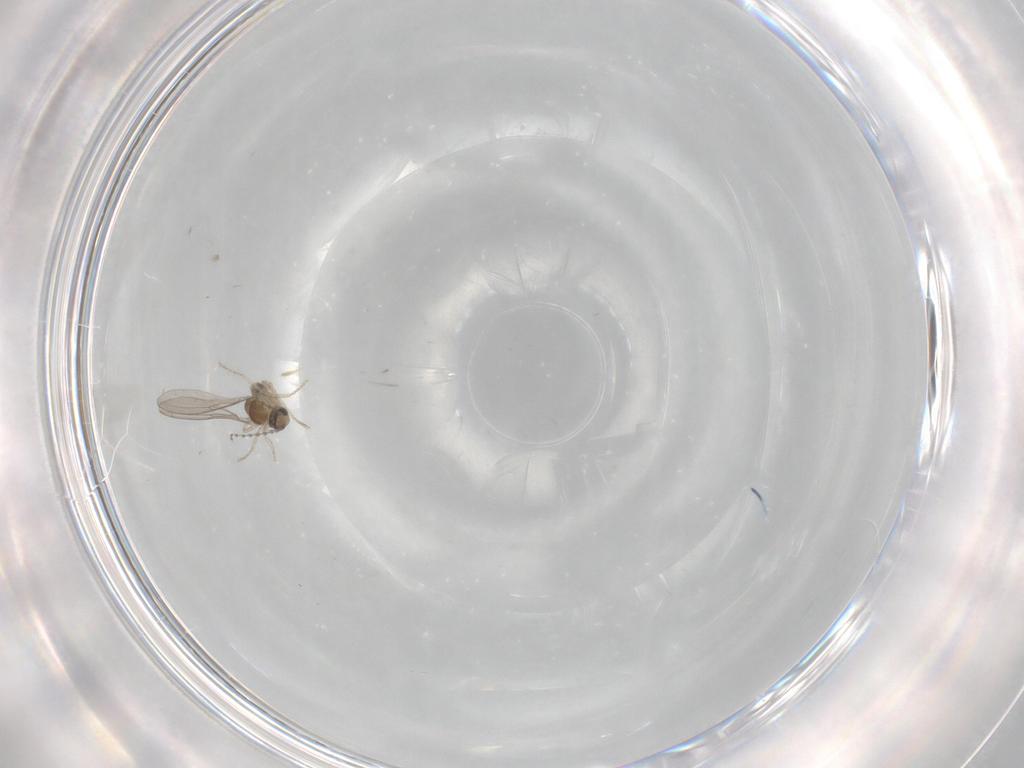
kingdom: Animalia
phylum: Arthropoda
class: Insecta
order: Diptera
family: Cecidomyiidae
